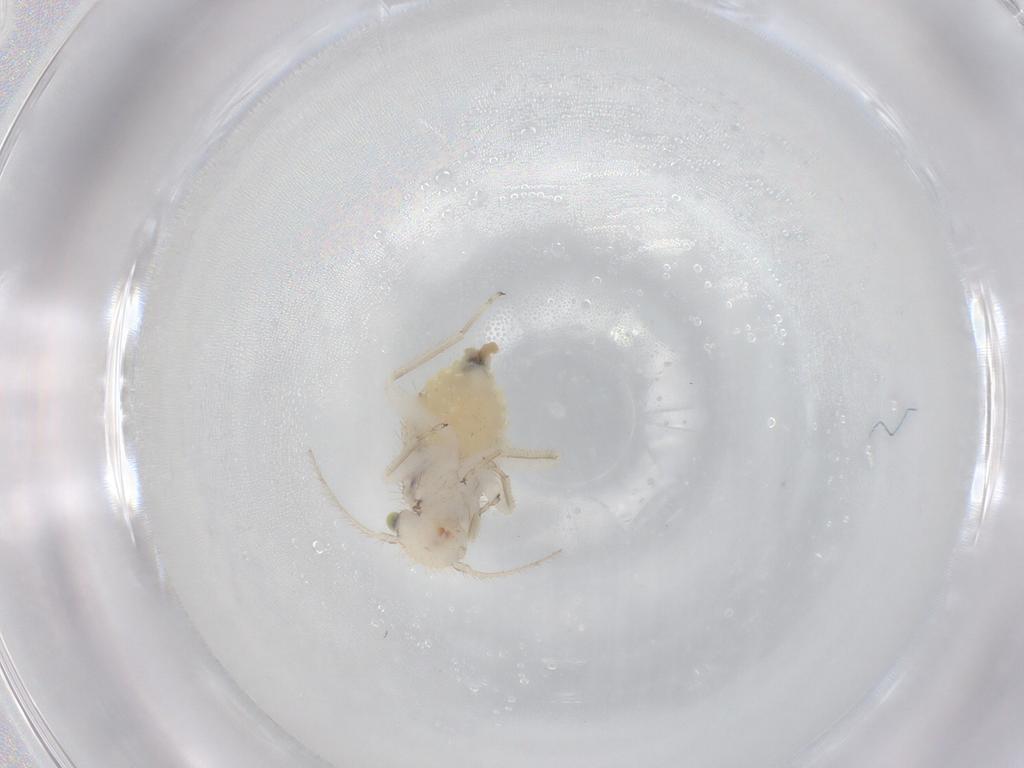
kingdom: Animalia
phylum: Arthropoda
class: Insecta
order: Psocodea
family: Myopsocidae
